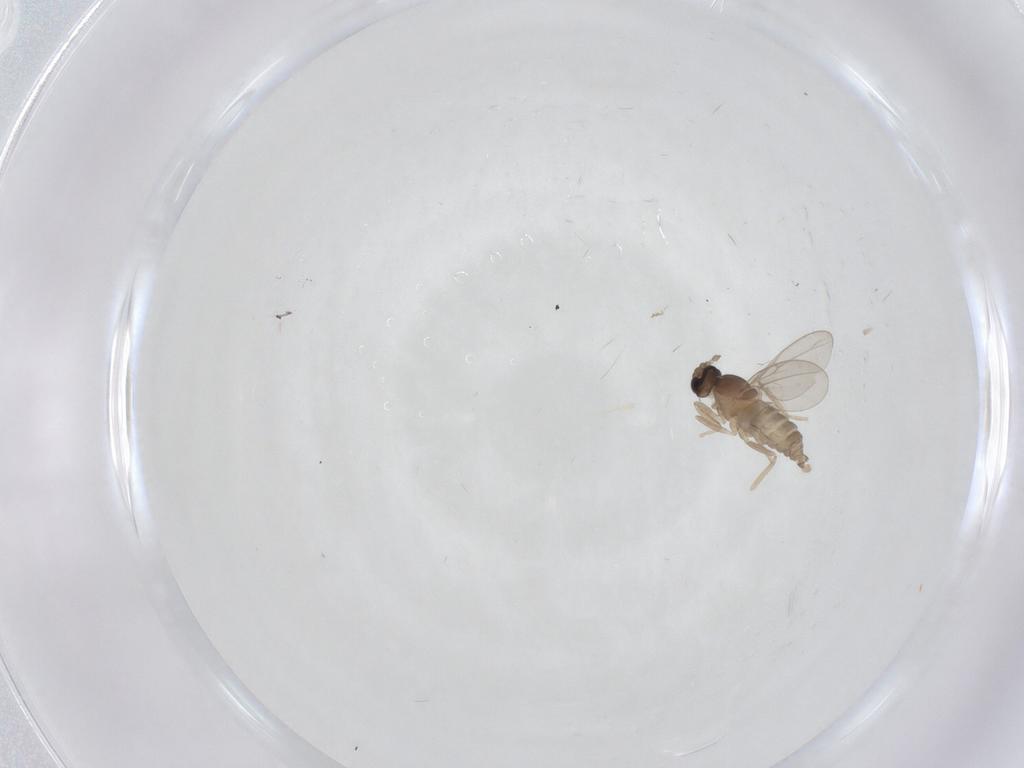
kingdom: Animalia
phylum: Arthropoda
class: Insecta
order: Diptera
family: Cecidomyiidae
